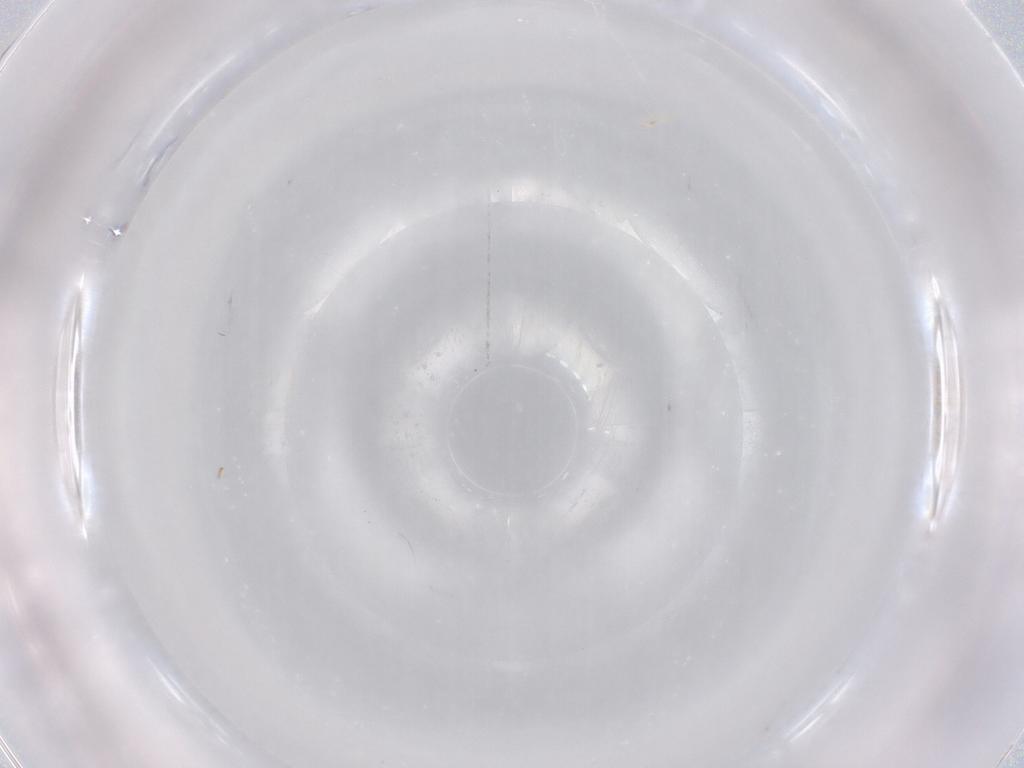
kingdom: Animalia
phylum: Arthropoda
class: Collembola
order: Entomobryomorpha
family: Isotomidae
